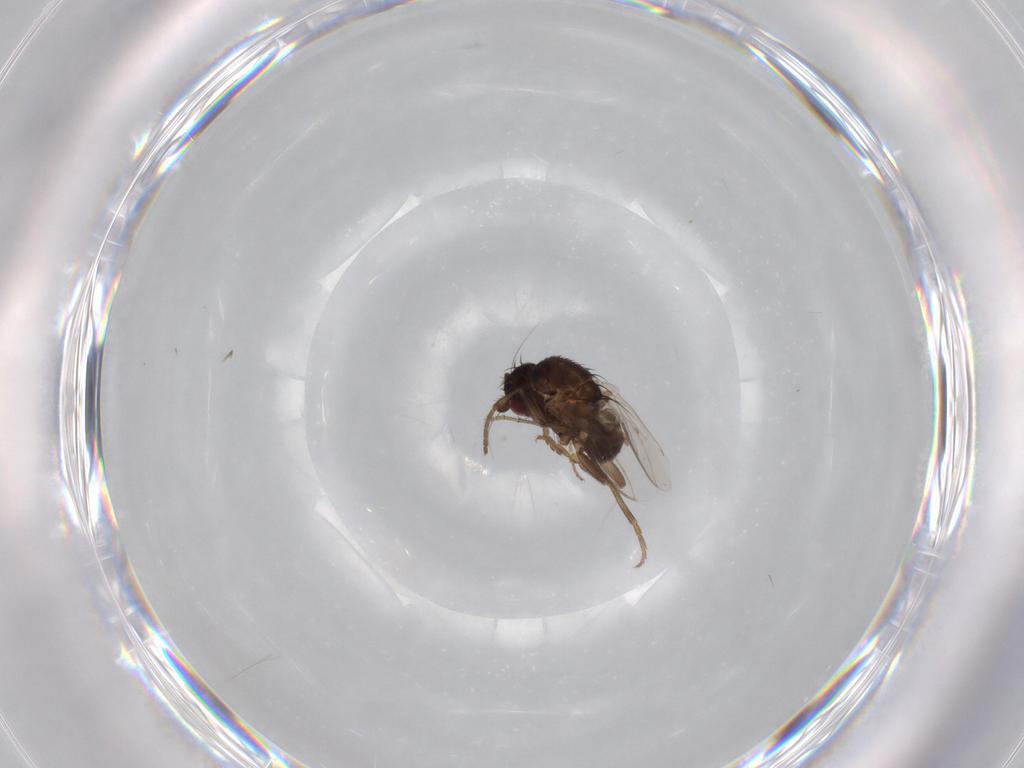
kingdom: Animalia
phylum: Arthropoda
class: Insecta
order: Diptera
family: Sphaeroceridae
